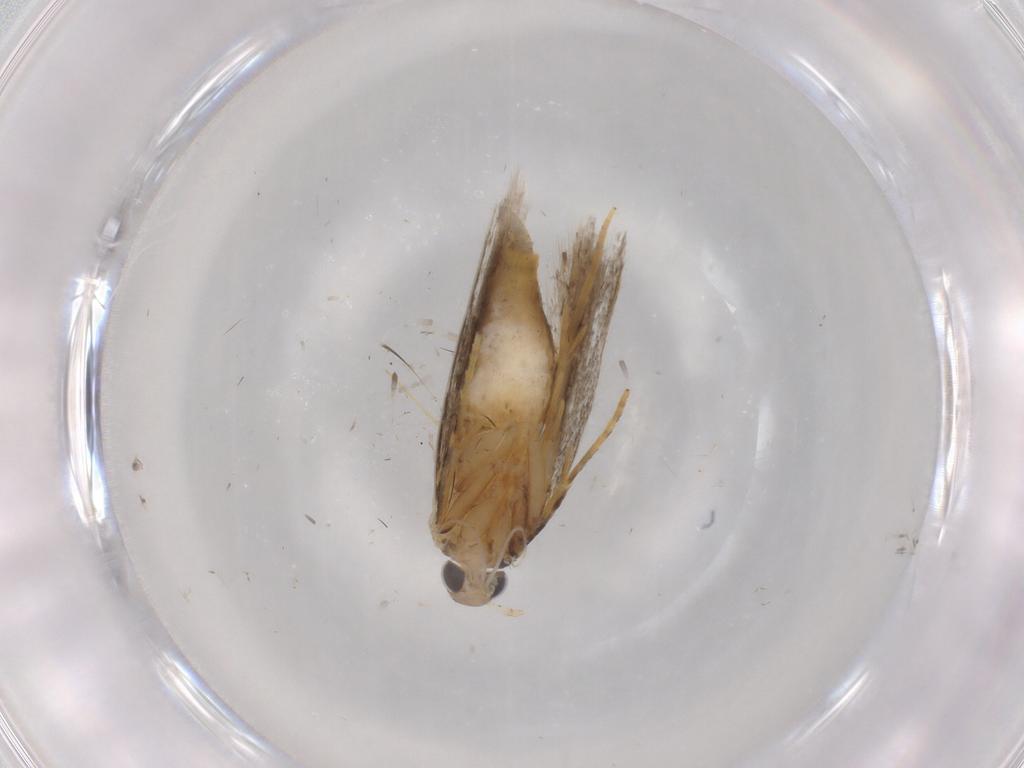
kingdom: Animalia
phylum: Arthropoda
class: Insecta
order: Lepidoptera
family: Autostichidae
